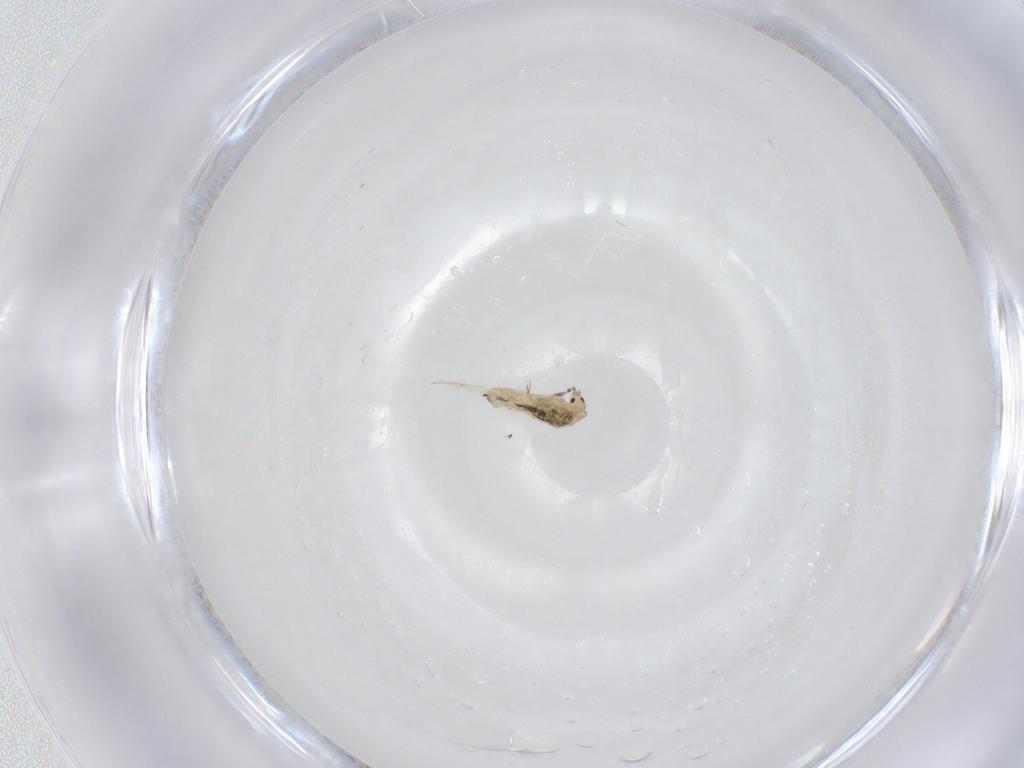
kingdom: Animalia
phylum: Arthropoda
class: Collembola
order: Entomobryomorpha
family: Entomobryidae
